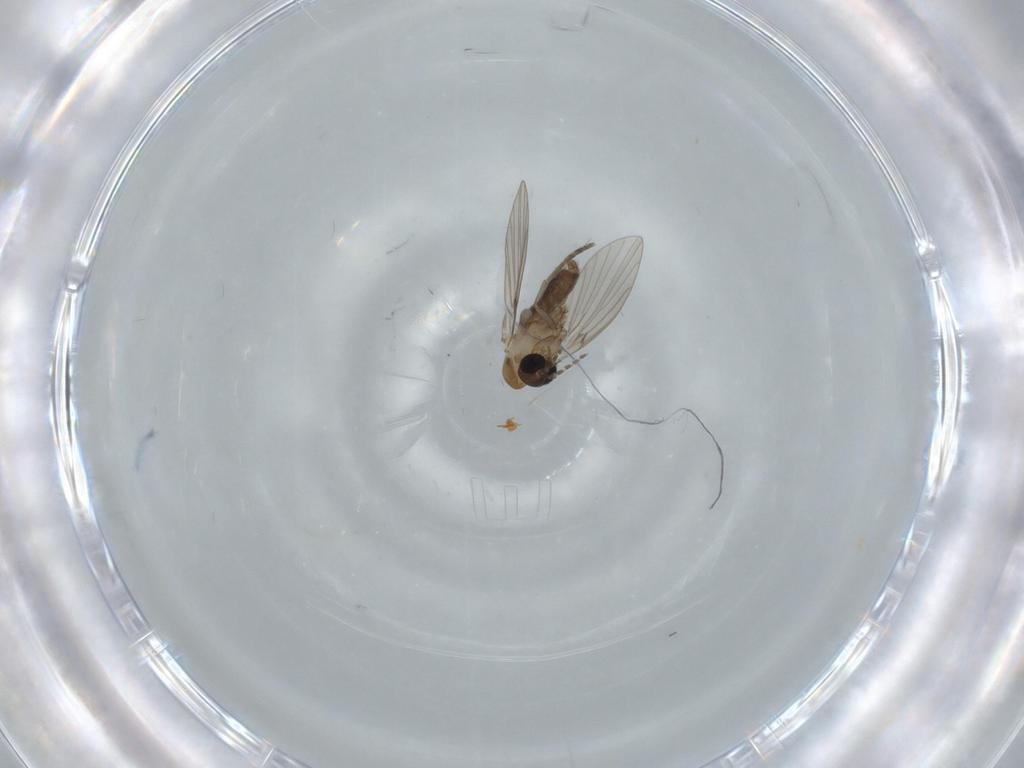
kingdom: Animalia
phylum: Arthropoda
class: Insecta
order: Diptera
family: Psychodidae
